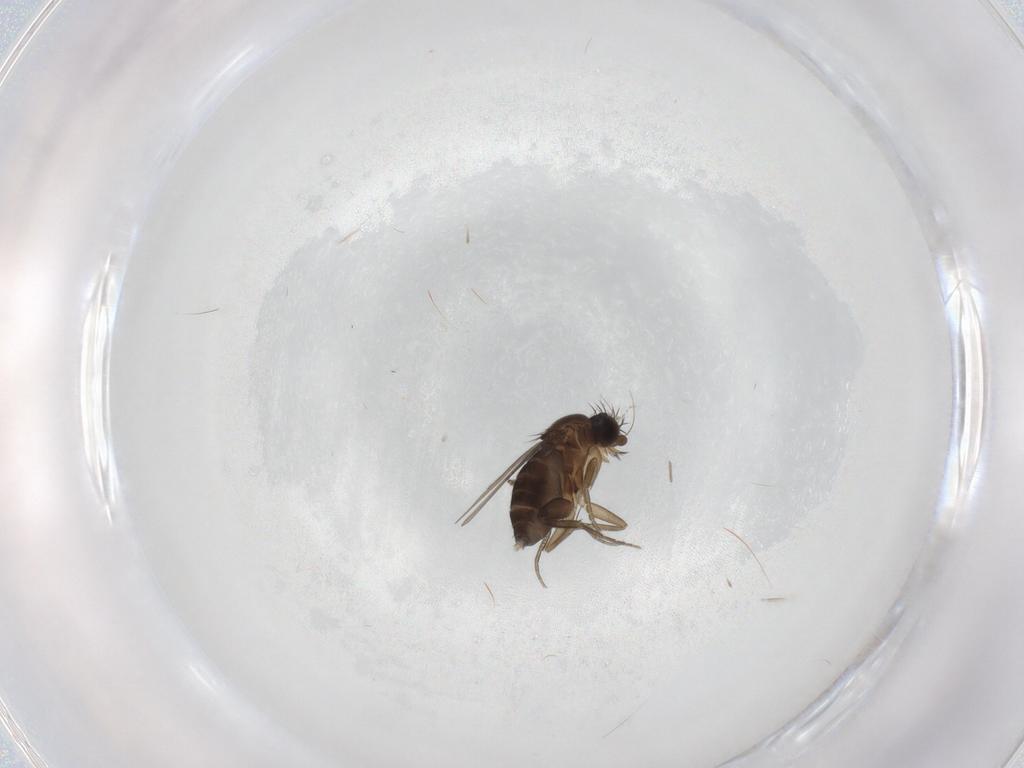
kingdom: Animalia
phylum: Arthropoda
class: Insecta
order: Diptera
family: Phoridae
